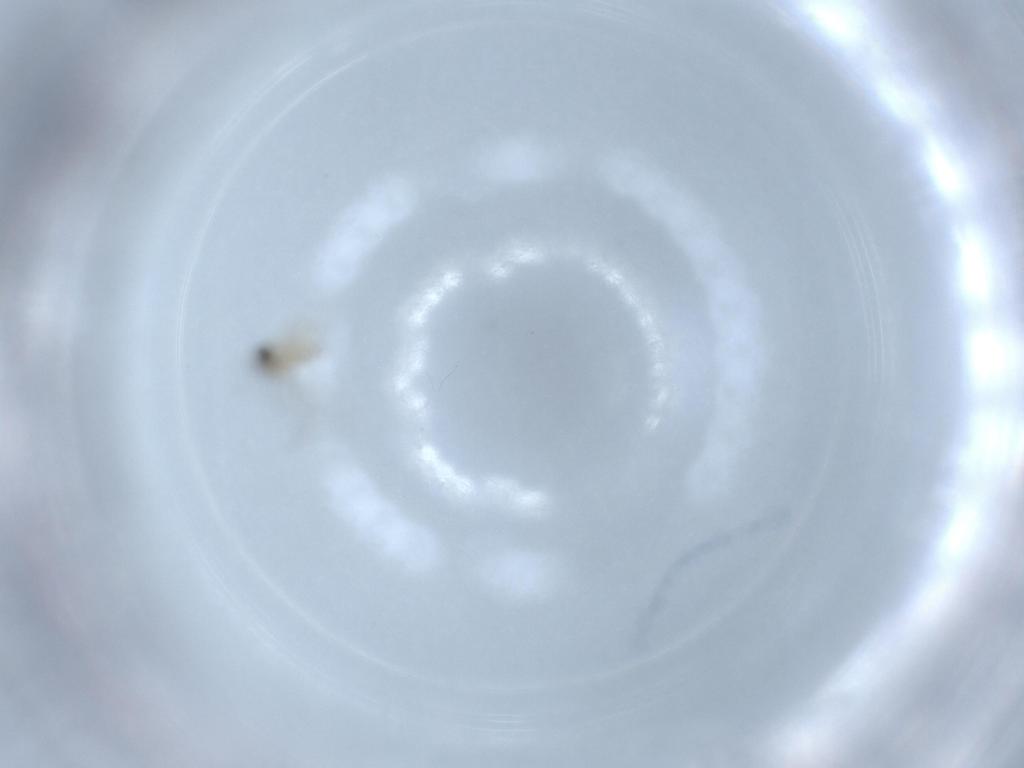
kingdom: Animalia
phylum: Arthropoda
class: Insecta
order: Diptera
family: Cecidomyiidae
